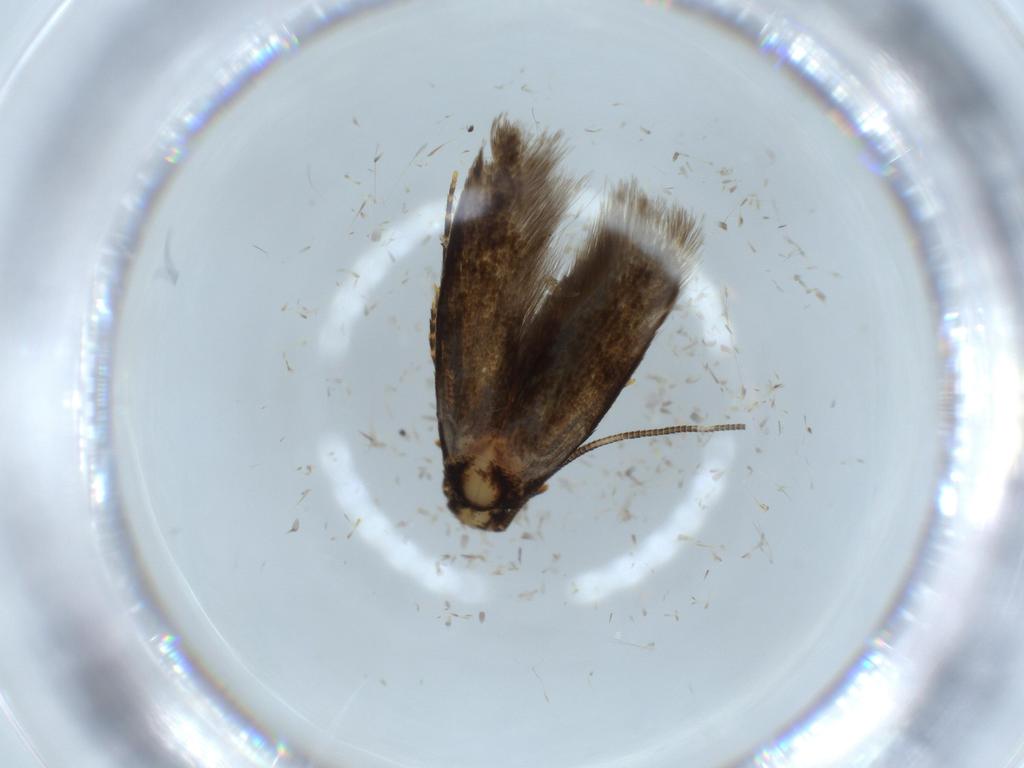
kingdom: Animalia
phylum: Arthropoda
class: Insecta
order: Lepidoptera
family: Tineidae
